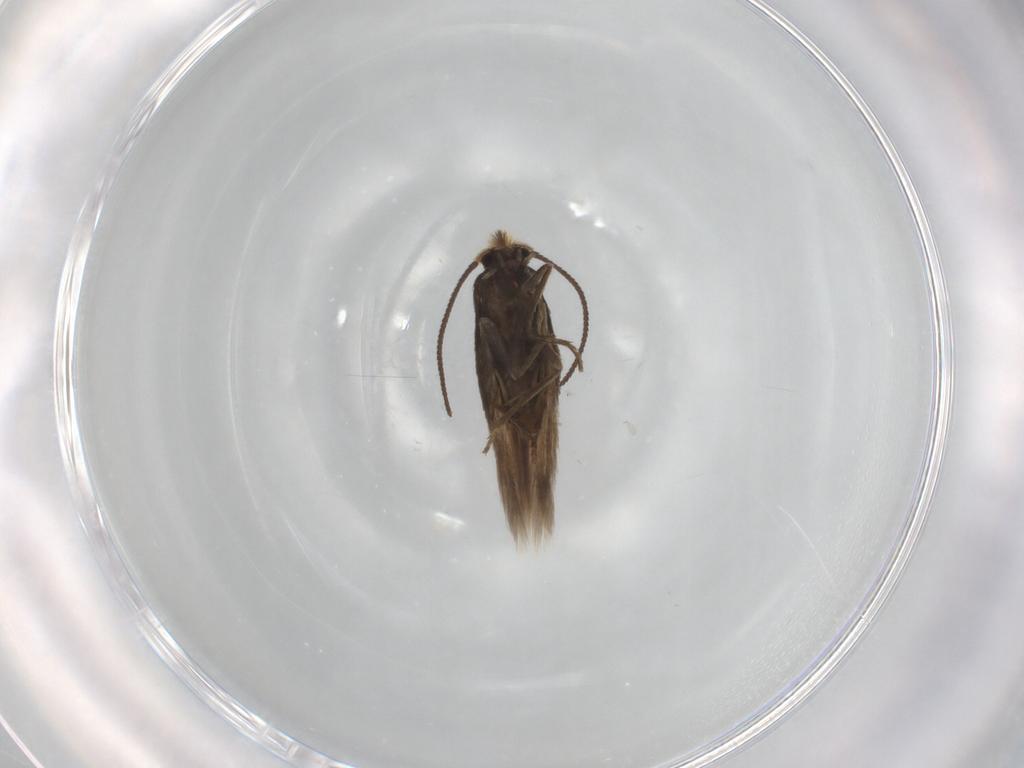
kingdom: Animalia
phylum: Arthropoda
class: Insecta
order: Lepidoptera
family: Nepticulidae
